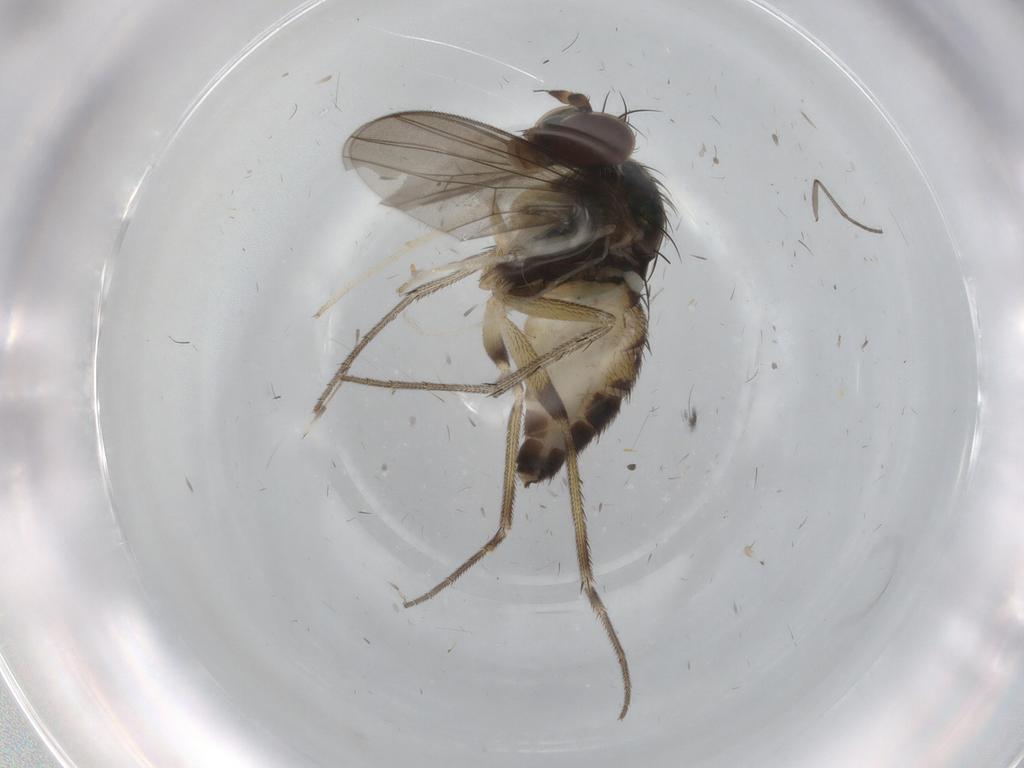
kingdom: Animalia
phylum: Arthropoda
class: Insecta
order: Diptera
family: Dolichopodidae
